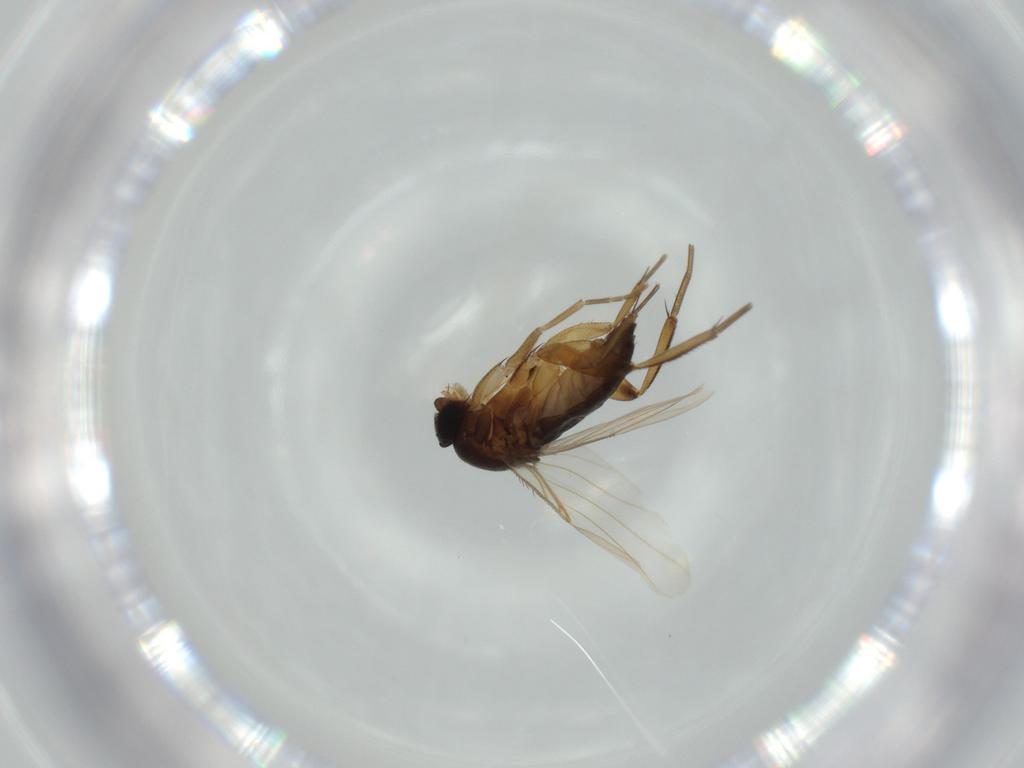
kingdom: Animalia
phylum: Arthropoda
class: Insecta
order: Diptera
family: Chironomidae
